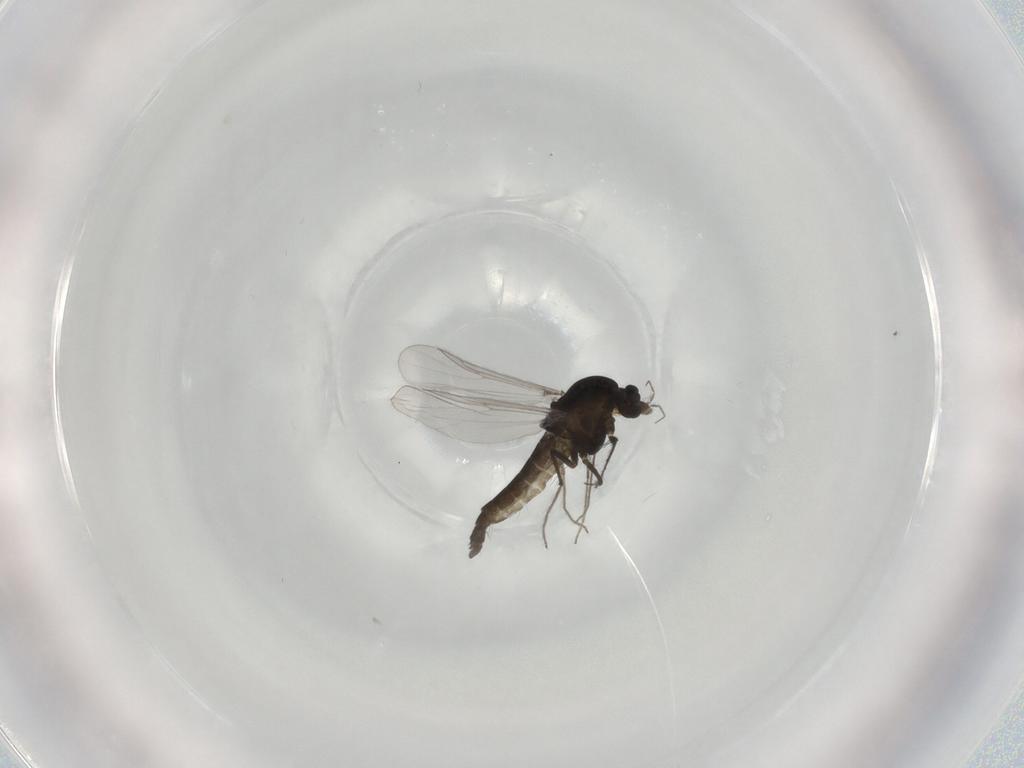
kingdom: Animalia
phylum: Arthropoda
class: Insecta
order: Diptera
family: Chironomidae
